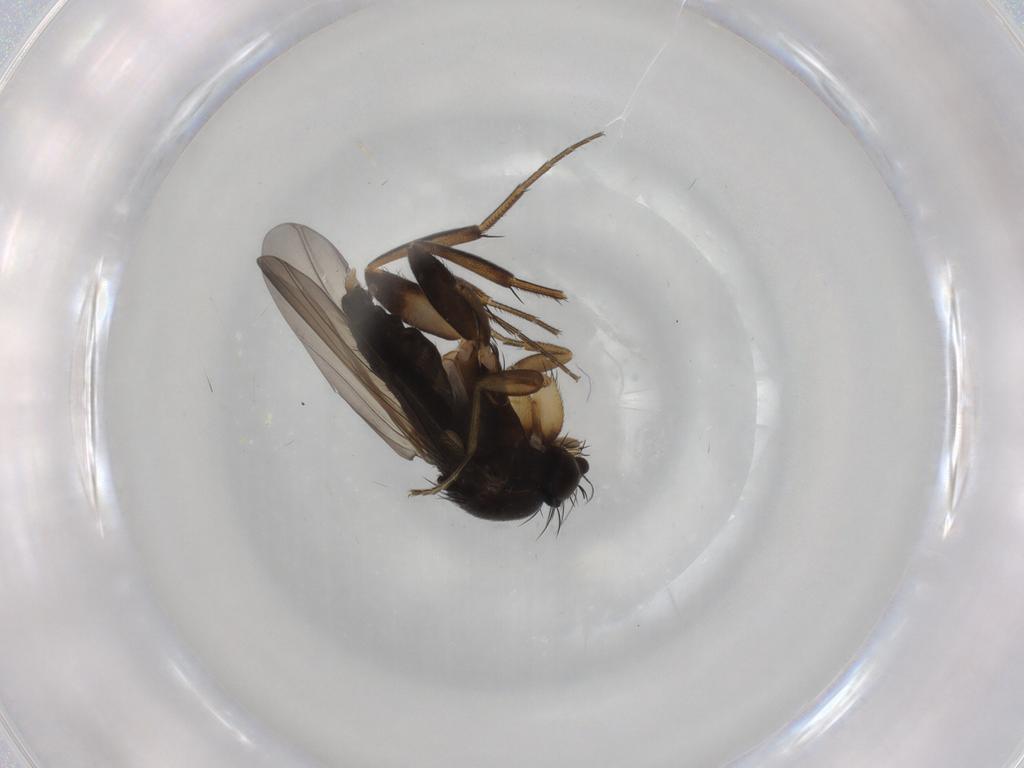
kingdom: Animalia
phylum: Arthropoda
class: Insecta
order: Diptera
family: Phoridae
